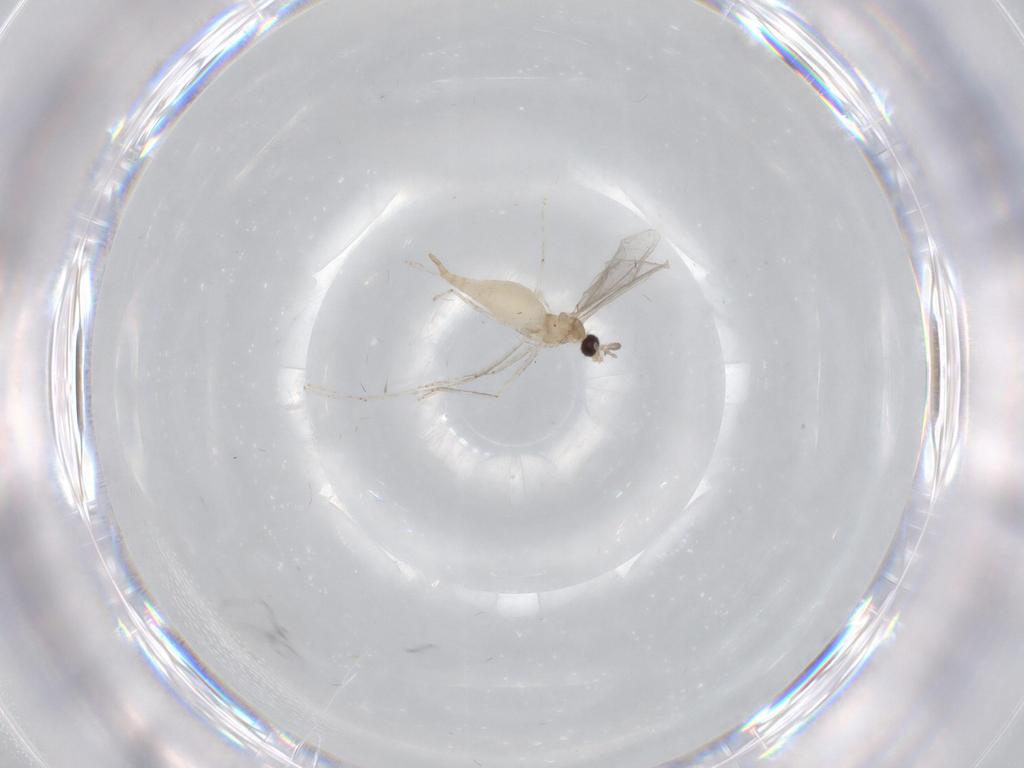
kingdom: Animalia
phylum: Arthropoda
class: Insecta
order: Diptera
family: Cecidomyiidae
